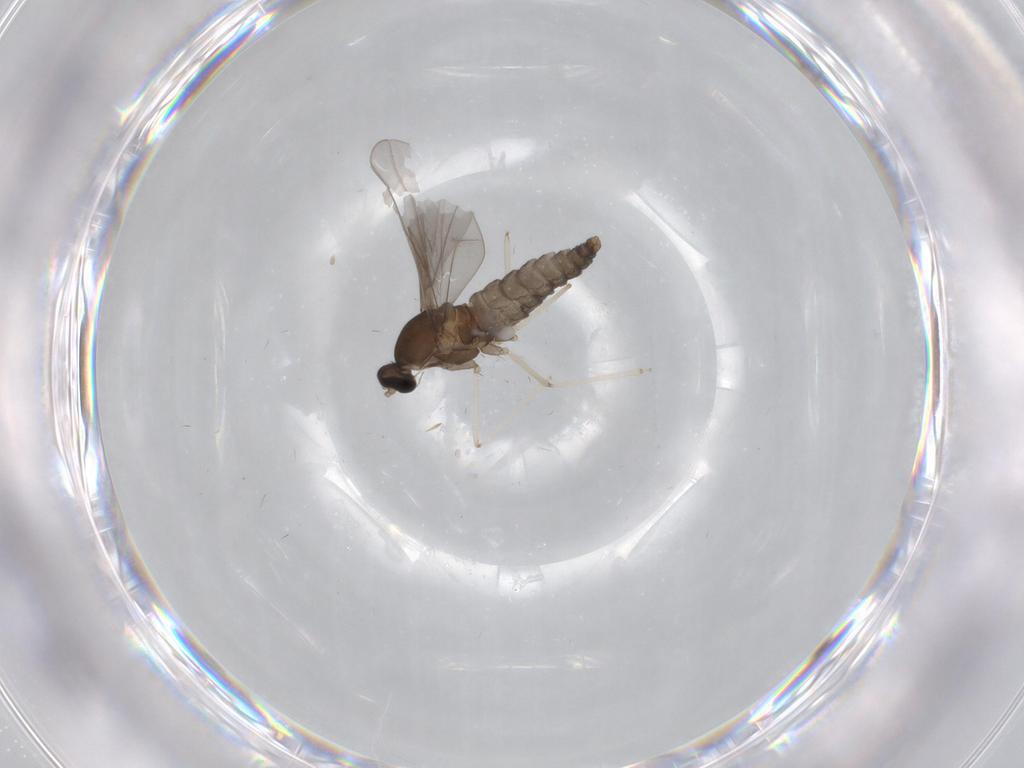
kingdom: Animalia
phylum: Arthropoda
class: Insecta
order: Diptera
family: Cecidomyiidae
